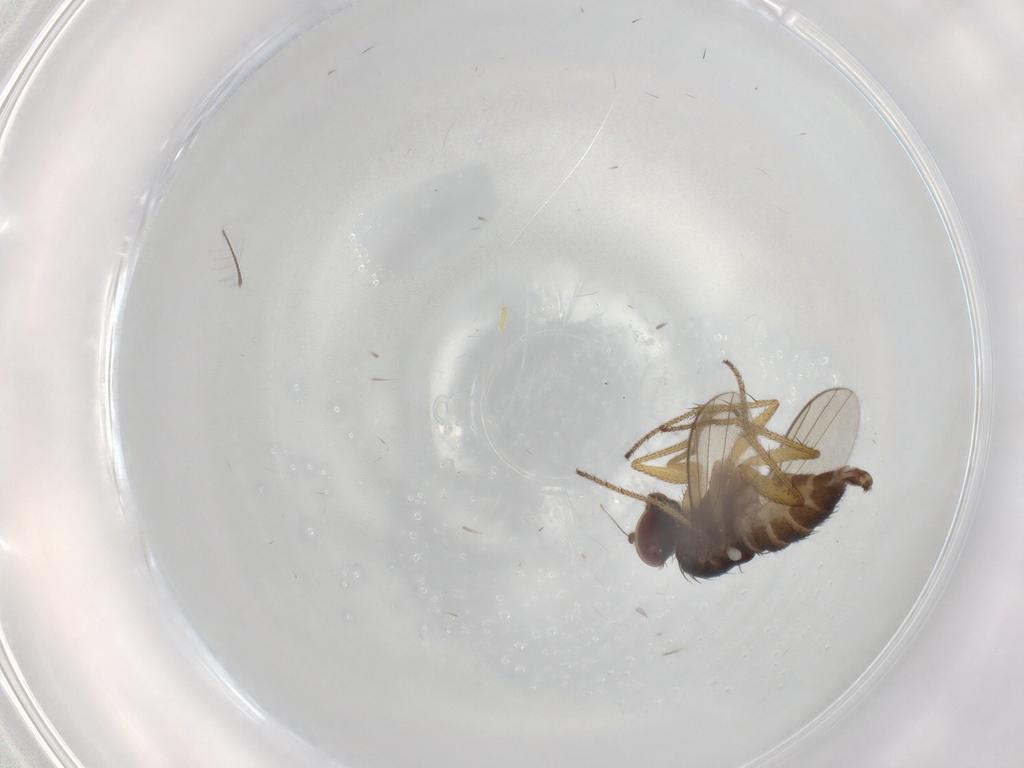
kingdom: Animalia
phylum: Arthropoda
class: Insecta
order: Diptera
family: Dolichopodidae
